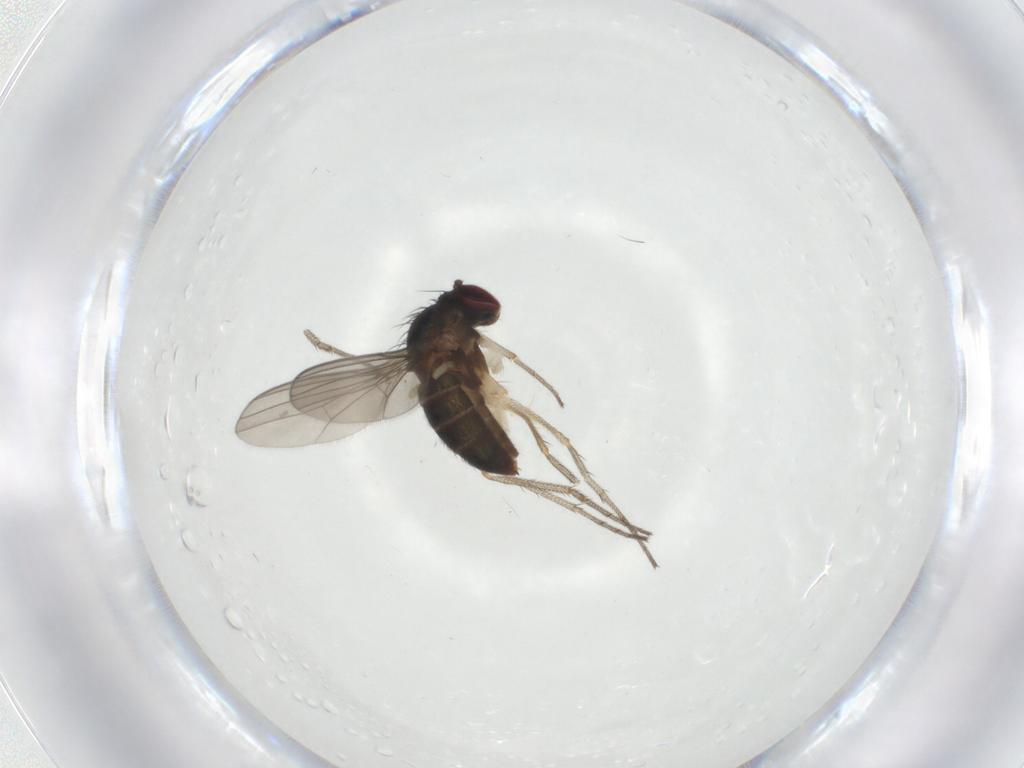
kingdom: Animalia
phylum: Arthropoda
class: Insecta
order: Diptera
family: Dolichopodidae
